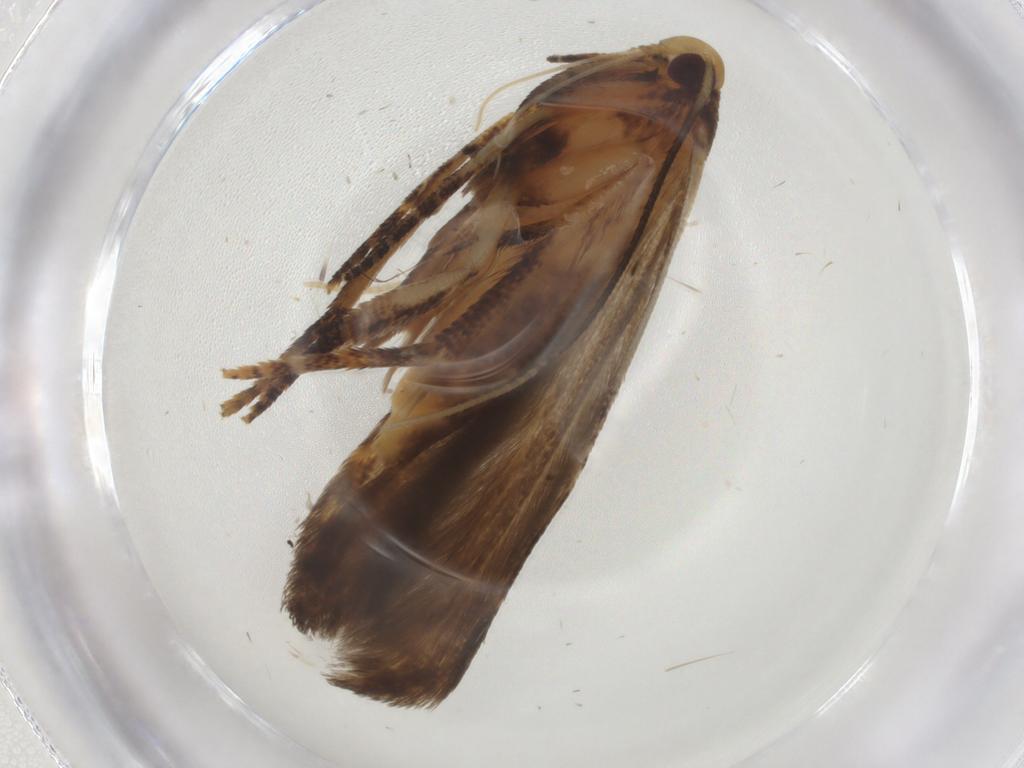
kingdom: Animalia
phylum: Arthropoda
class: Insecta
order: Lepidoptera
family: Cosmopterigidae
